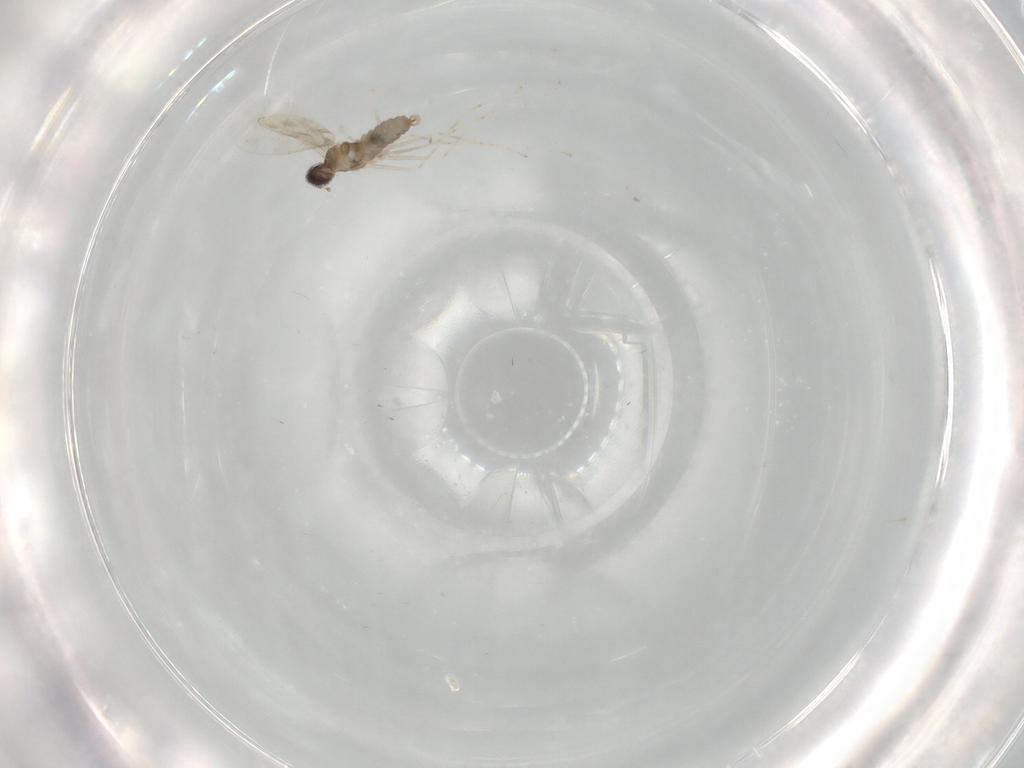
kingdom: Animalia
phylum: Arthropoda
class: Insecta
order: Diptera
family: Cecidomyiidae
